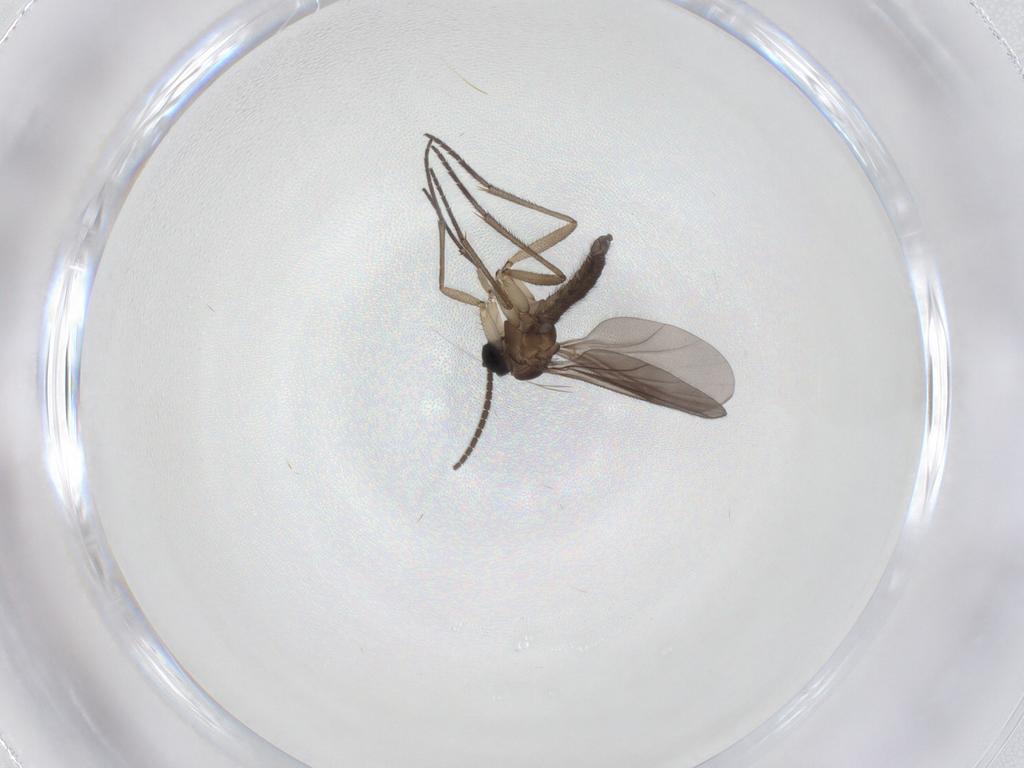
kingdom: Animalia
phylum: Arthropoda
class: Insecta
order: Diptera
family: Sciaridae
